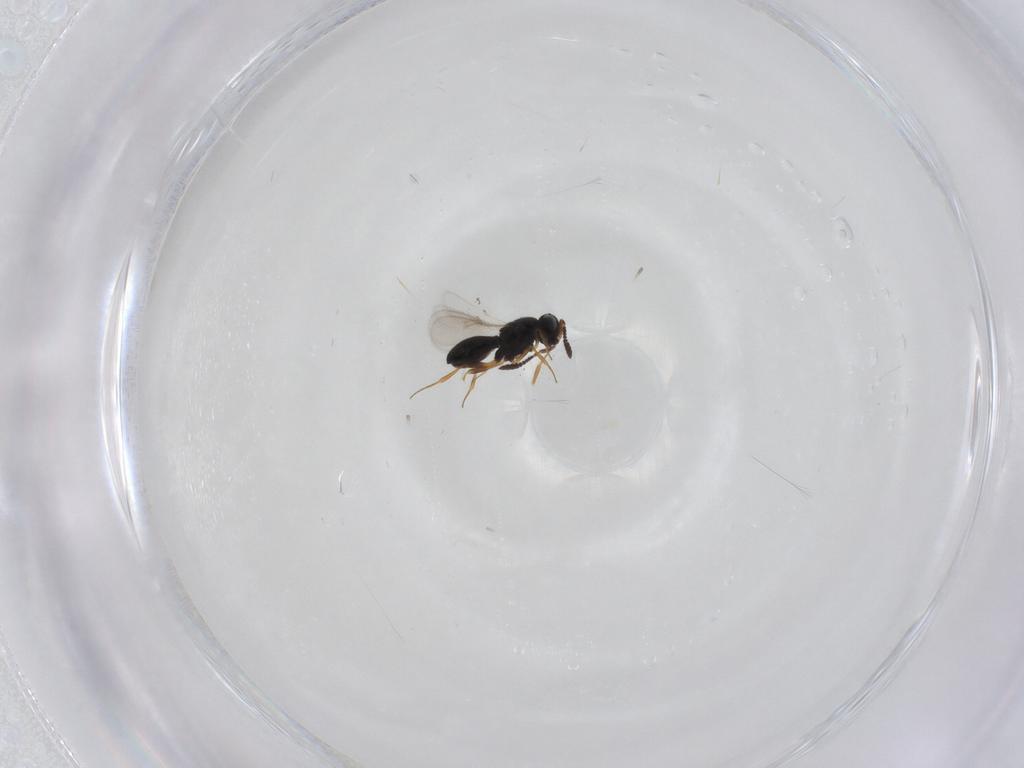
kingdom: Animalia
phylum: Arthropoda
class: Insecta
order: Hymenoptera
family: Scelionidae
